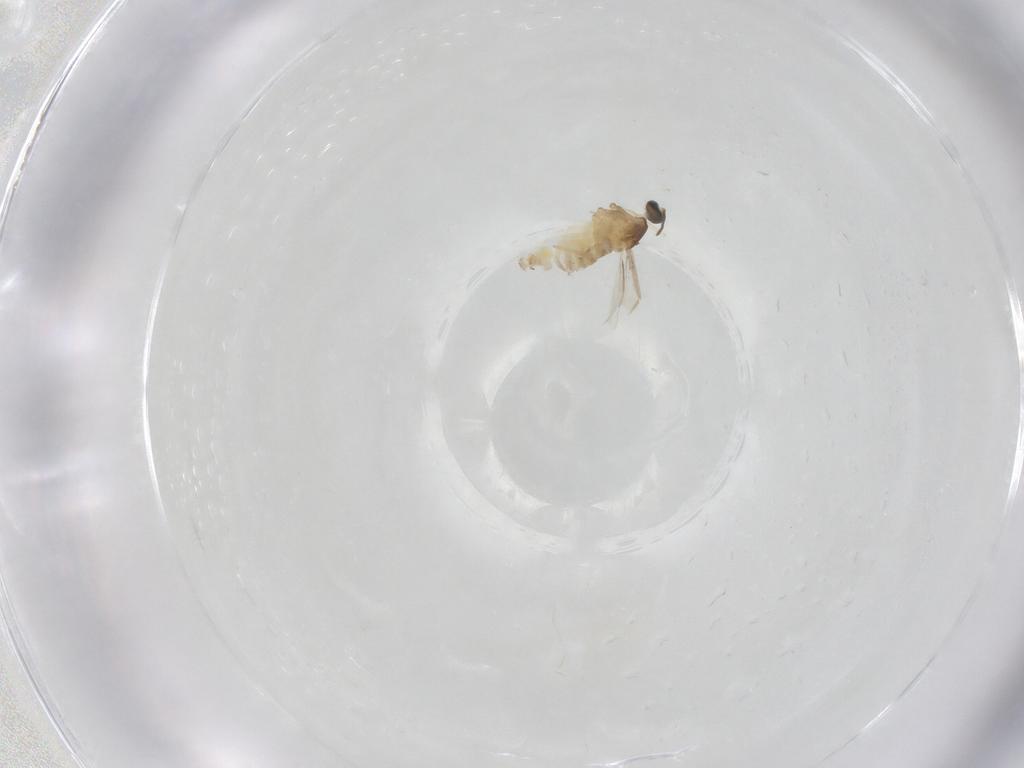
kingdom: Animalia
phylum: Arthropoda
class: Insecta
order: Diptera
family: Cecidomyiidae
